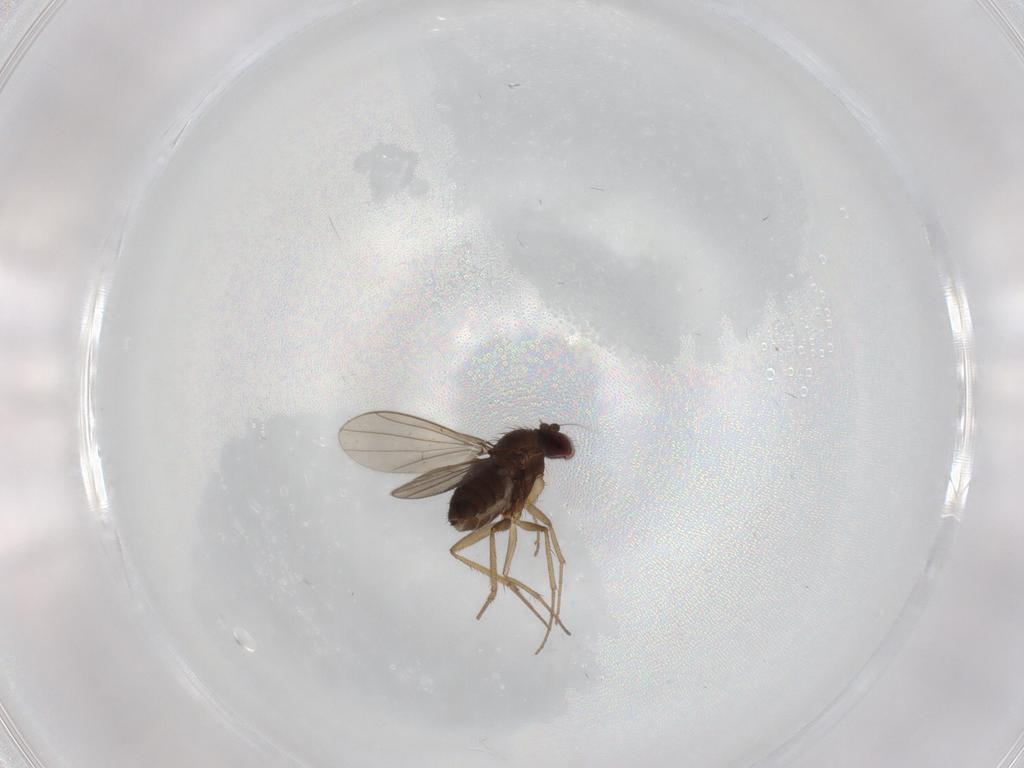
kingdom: Animalia
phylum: Arthropoda
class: Insecta
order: Diptera
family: Dolichopodidae
